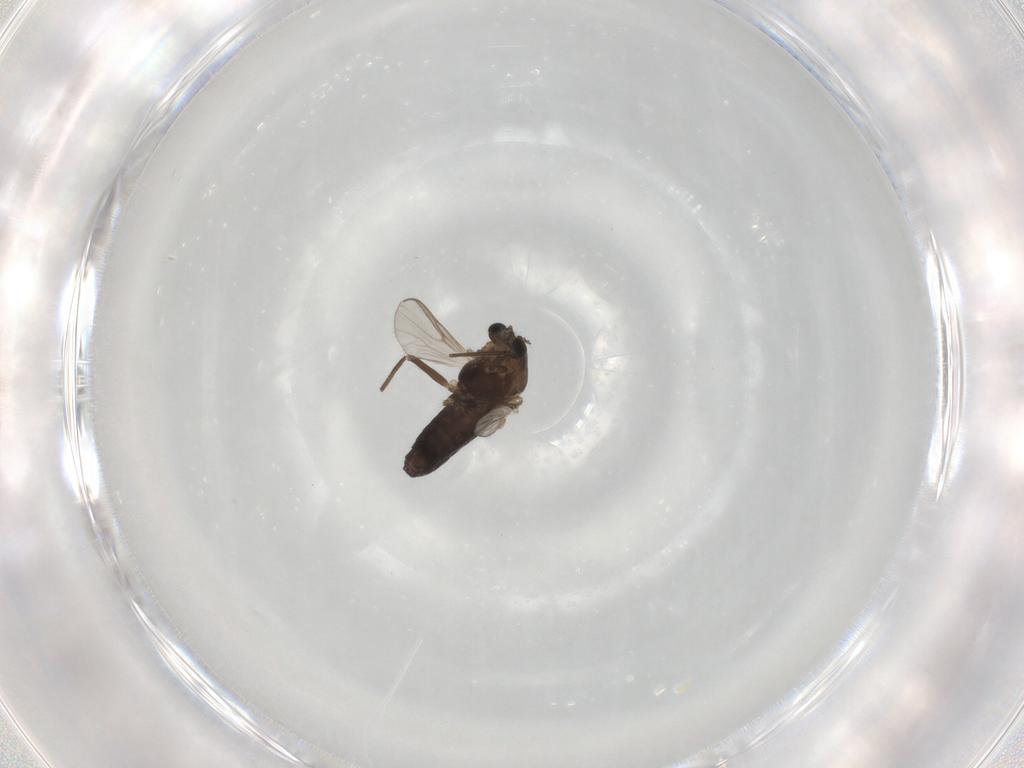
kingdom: Animalia
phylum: Arthropoda
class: Insecta
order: Diptera
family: Chironomidae
